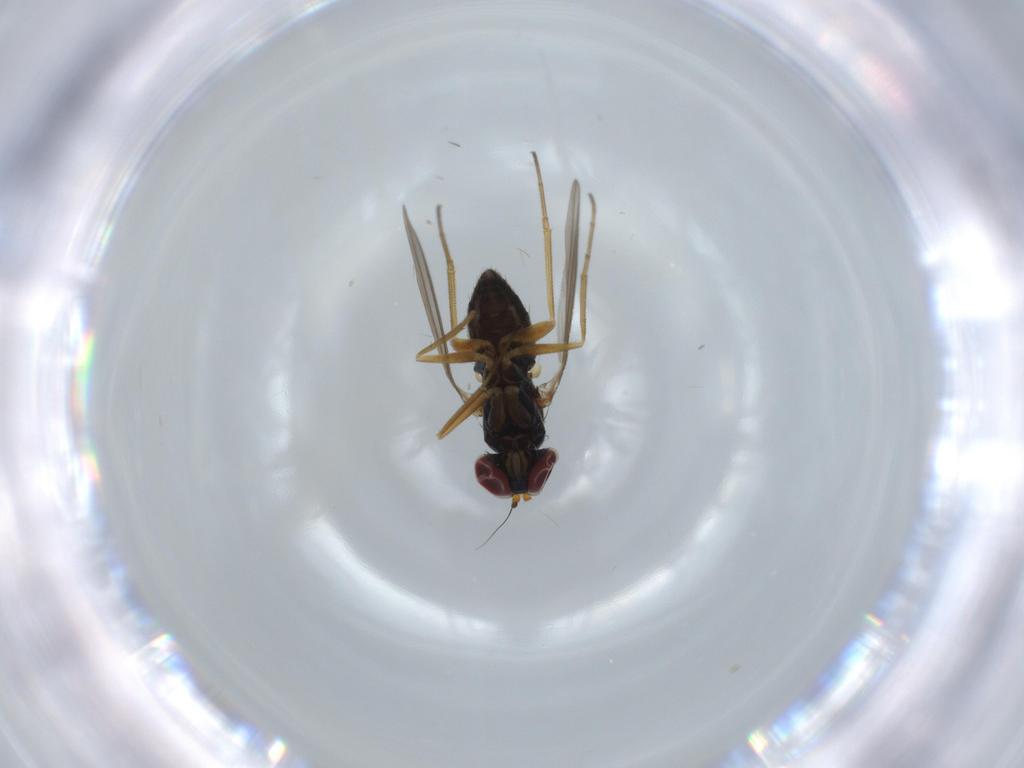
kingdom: Animalia
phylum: Arthropoda
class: Insecta
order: Diptera
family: Dolichopodidae
